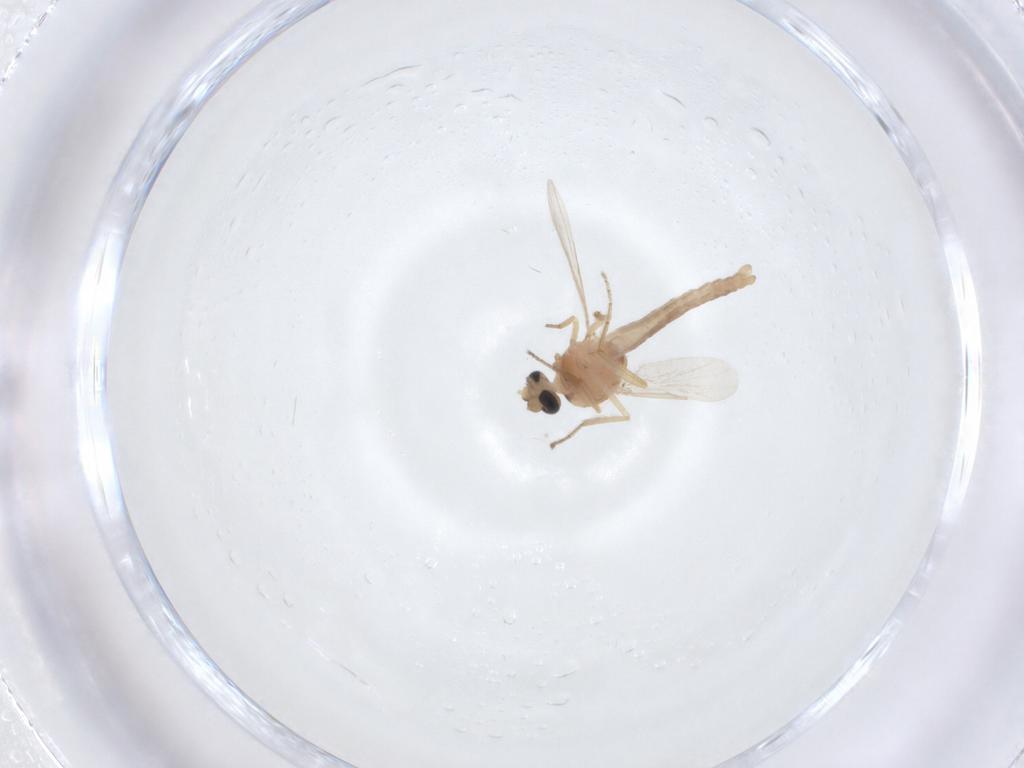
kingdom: Animalia
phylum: Arthropoda
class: Insecta
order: Diptera
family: Ceratopogonidae
